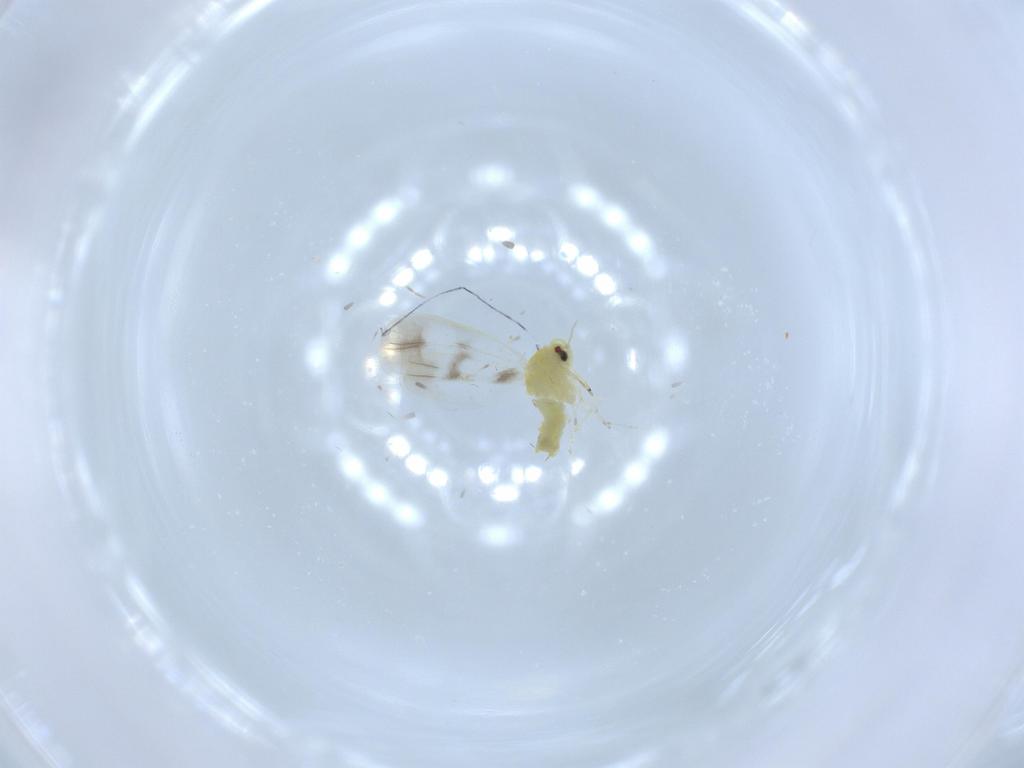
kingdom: Animalia
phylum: Arthropoda
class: Insecta
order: Hemiptera
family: Aleyrodidae
